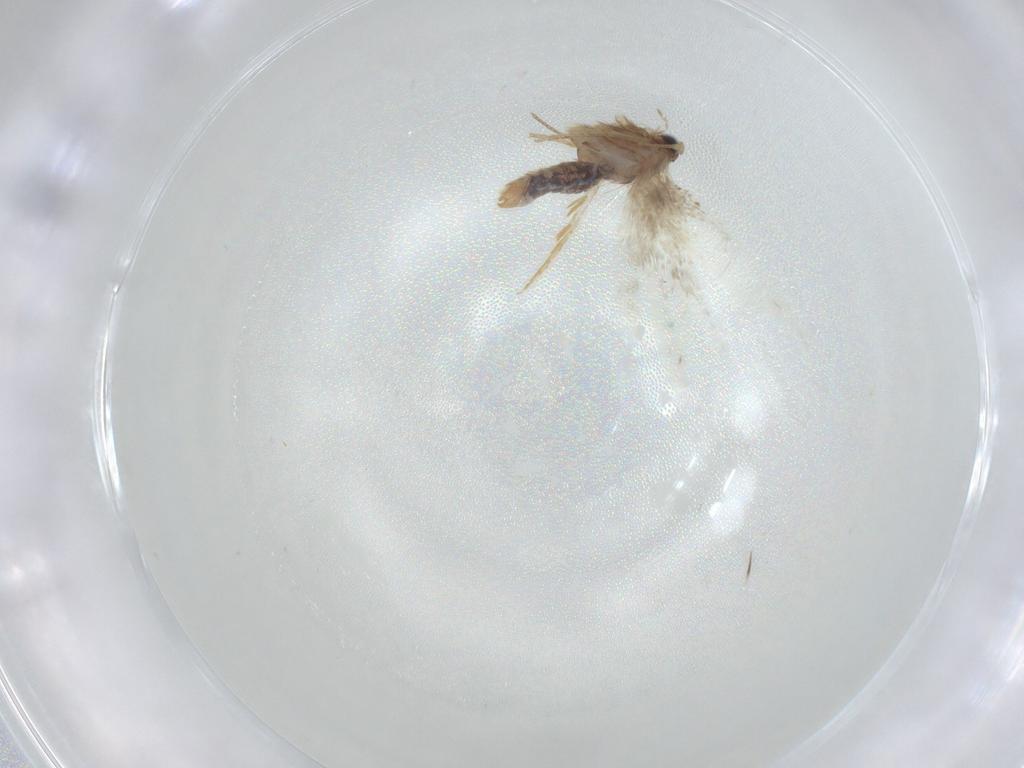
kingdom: Animalia
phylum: Arthropoda
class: Insecta
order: Lepidoptera
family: Nepticulidae
